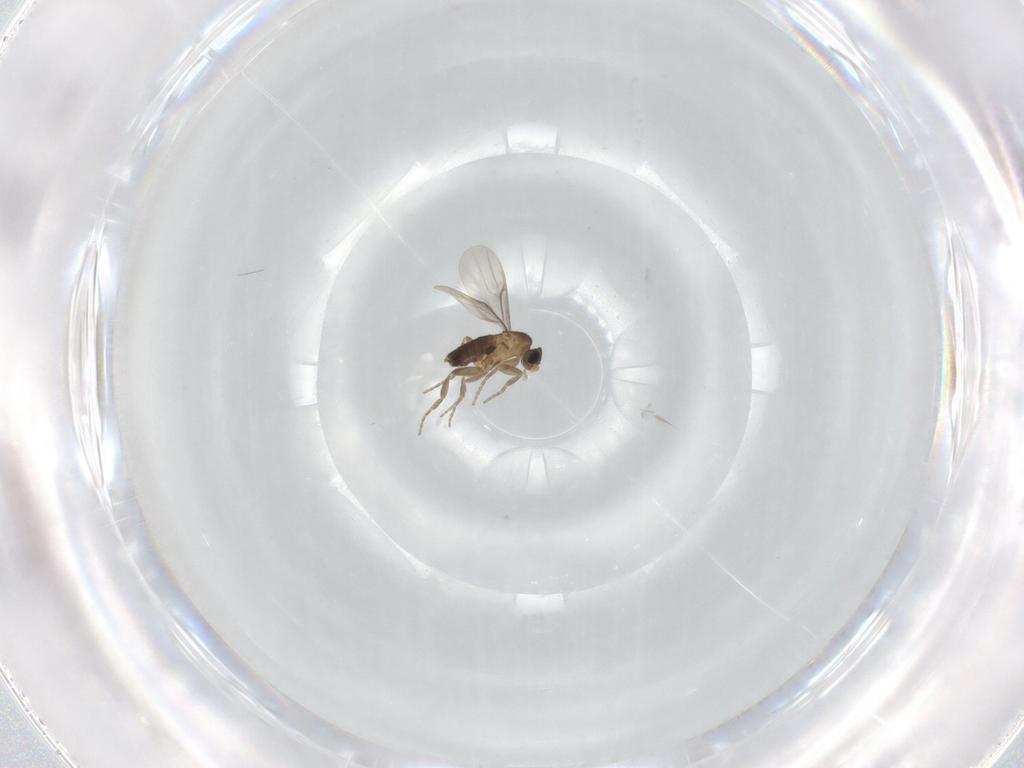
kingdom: Animalia
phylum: Arthropoda
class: Insecta
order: Diptera
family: Phoridae
